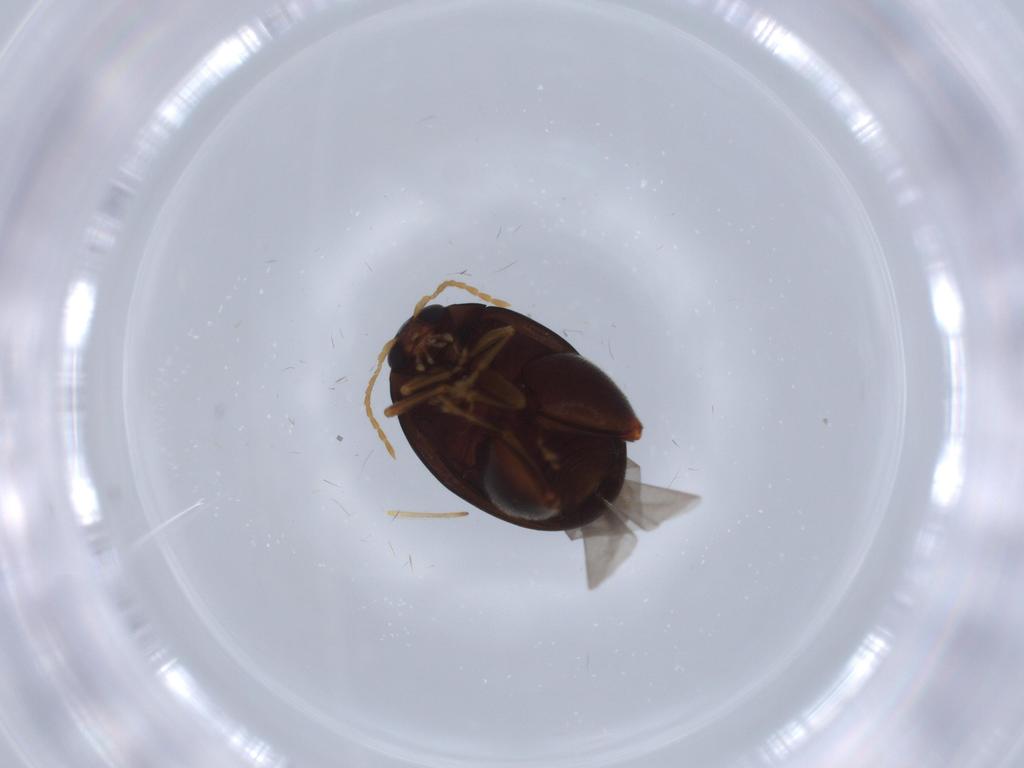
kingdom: Animalia
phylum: Arthropoda
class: Insecta
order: Coleoptera
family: Chrysomelidae
